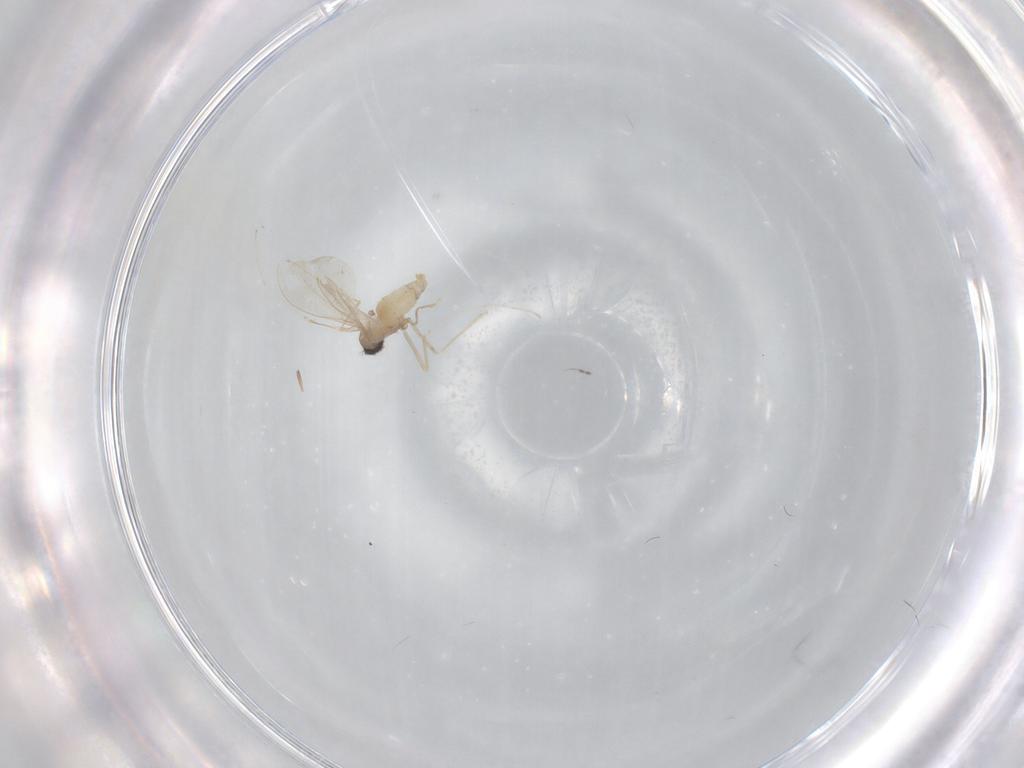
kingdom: Animalia
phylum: Arthropoda
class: Insecta
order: Diptera
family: Cecidomyiidae
